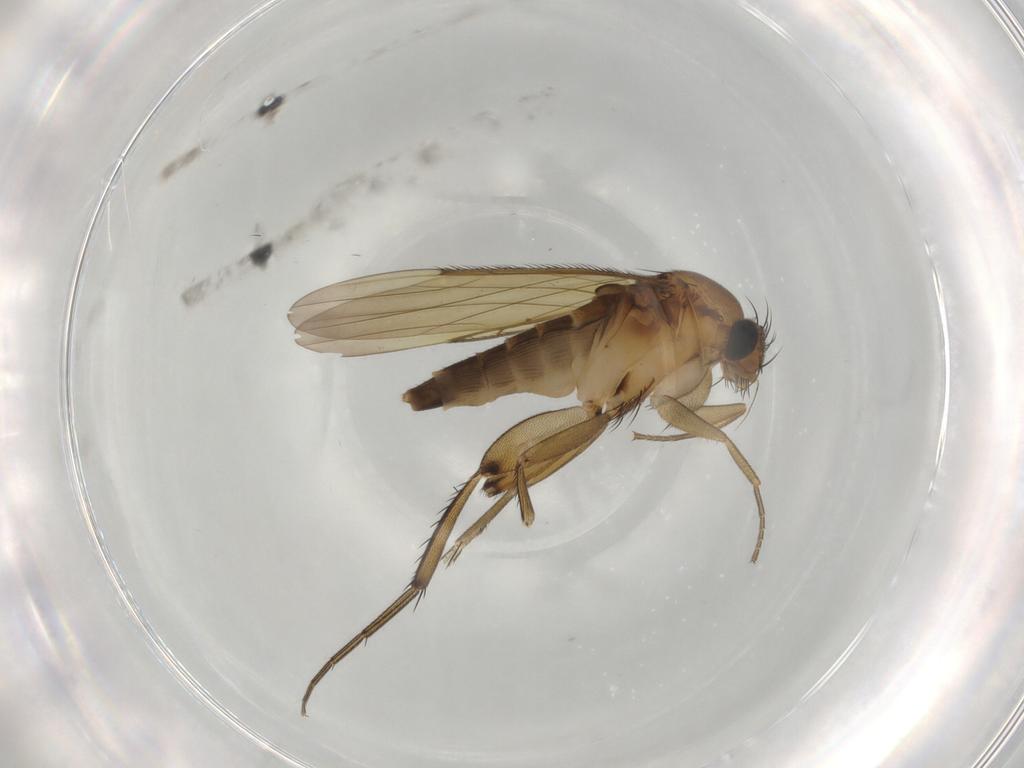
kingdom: Animalia
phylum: Arthropoda
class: Insecta
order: Diptera
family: Phoridae
